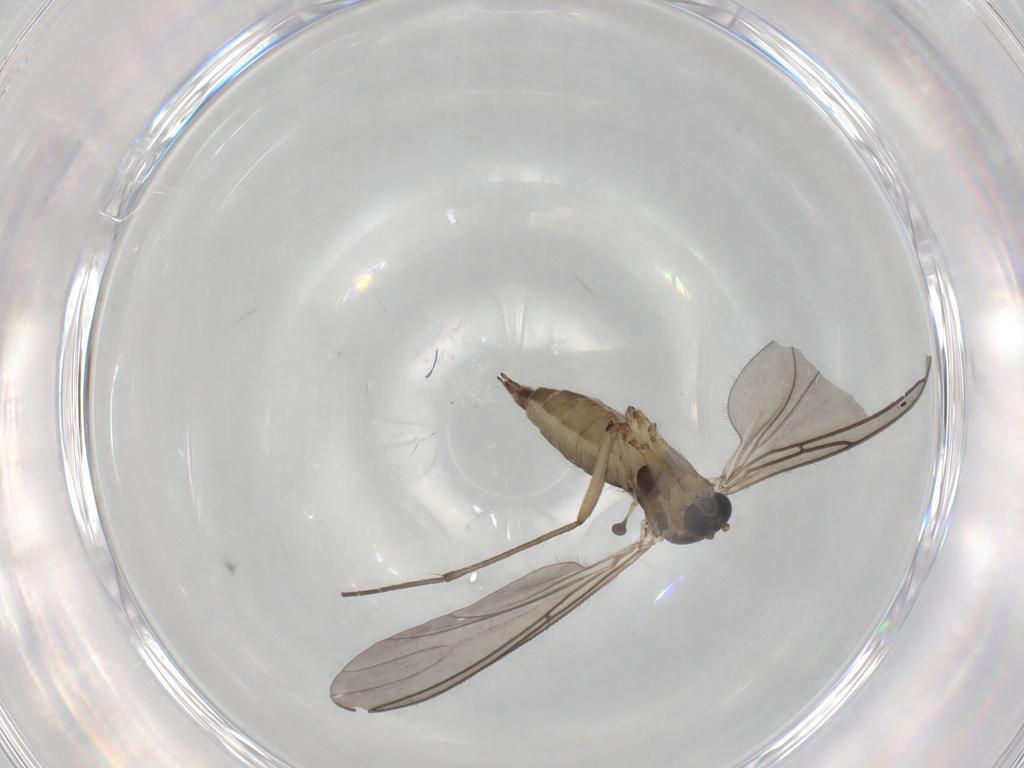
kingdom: Animalia
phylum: Arthropoda
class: Insecta
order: Diptera
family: Sciaridae
